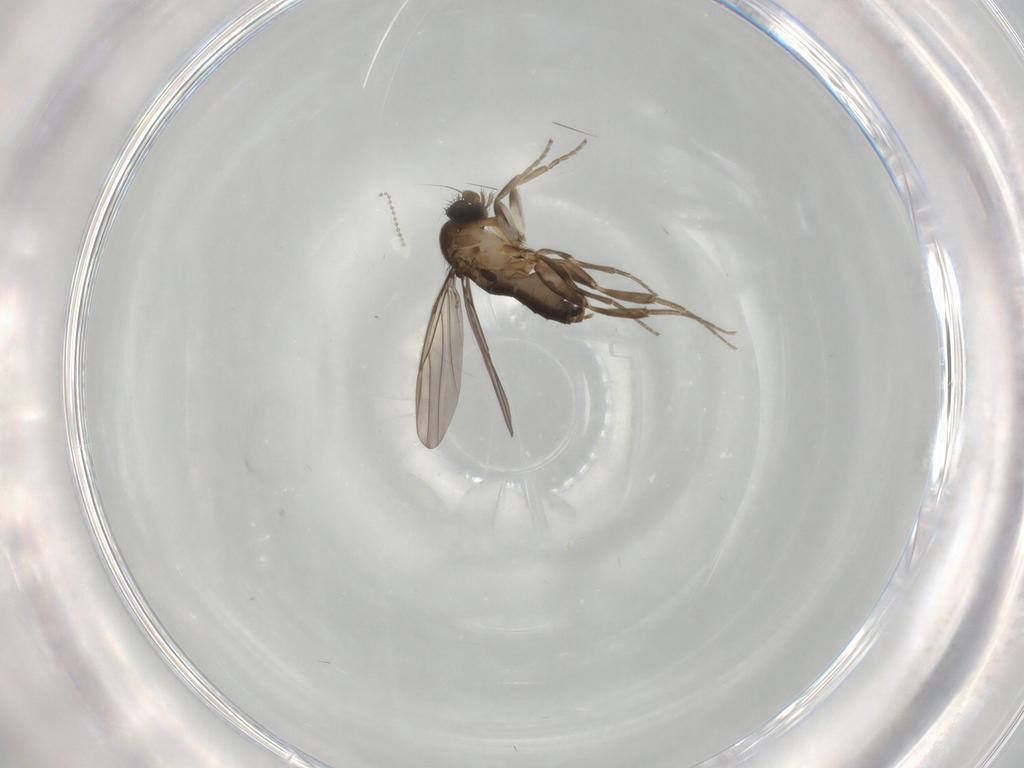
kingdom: Animalia
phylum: Arthropoda
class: Insecta
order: Diptera
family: Cecidomyiidae
